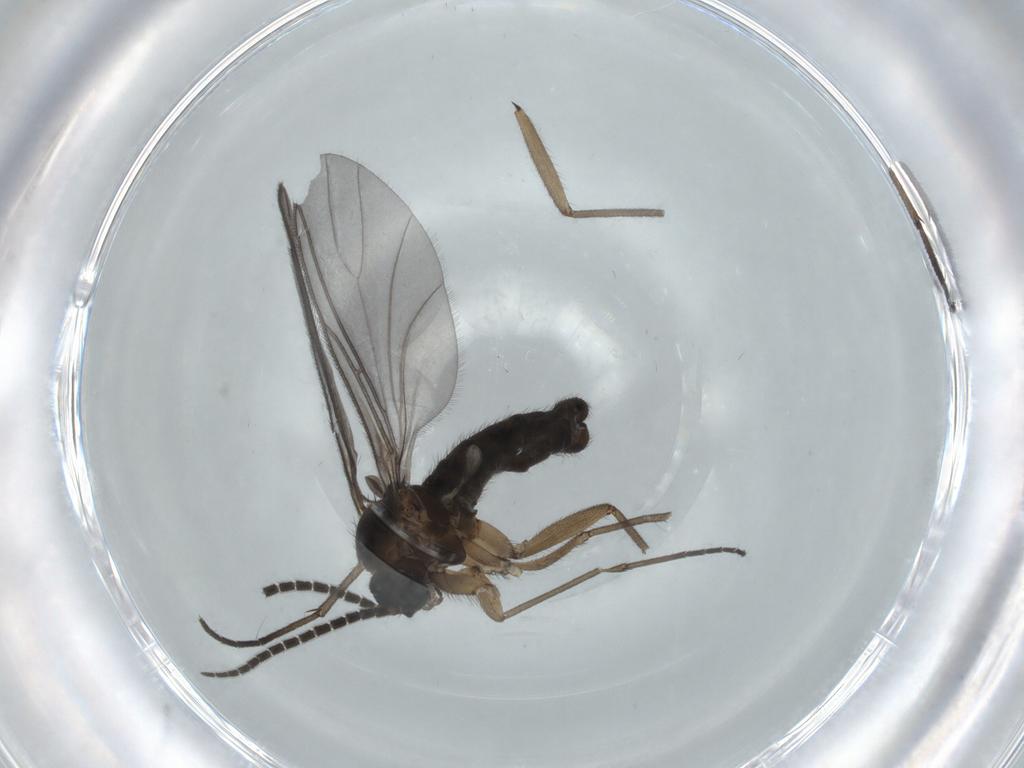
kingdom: Animalia
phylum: Arthropoda
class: Insecta
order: Diptera
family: Sciaridae
